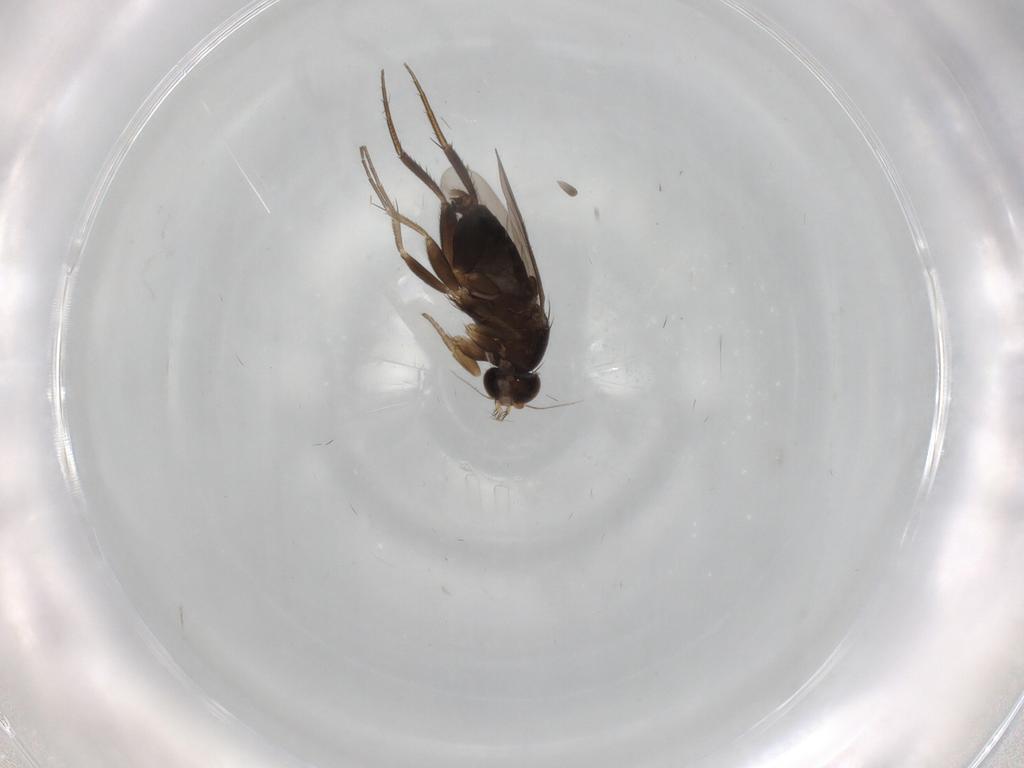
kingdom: Animalia
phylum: Arthropoda
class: Insecta
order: Diptera
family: Phoridae
